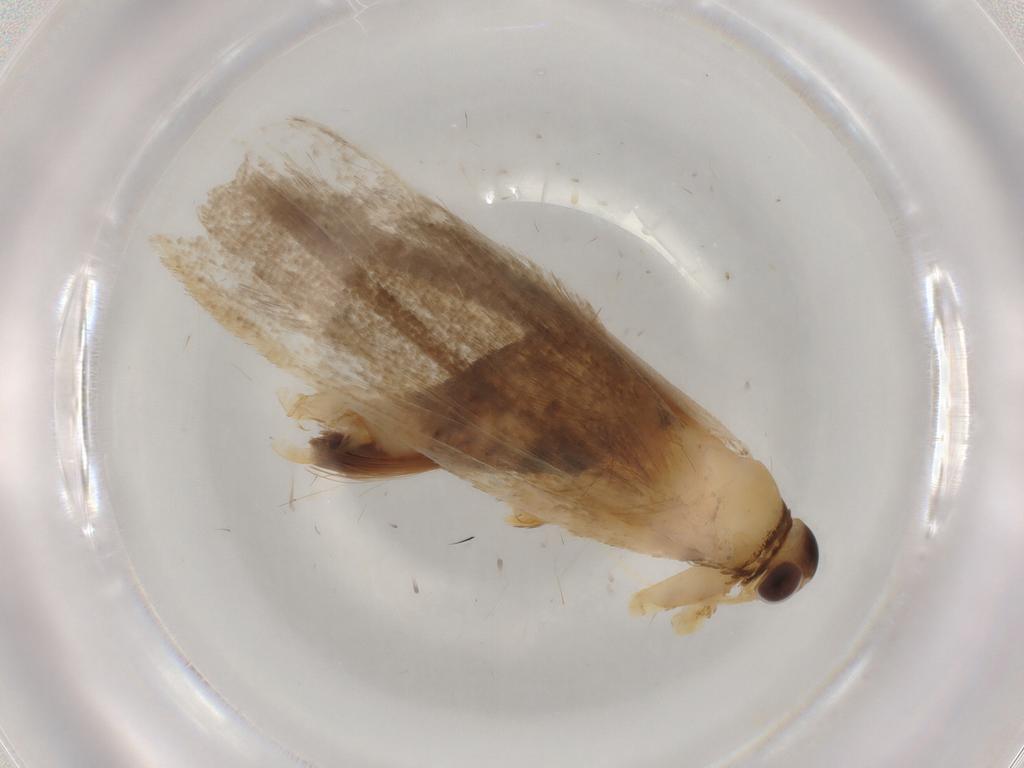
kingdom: Animalia
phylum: Arthropoda
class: Insecta
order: Lepidoptera
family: Lecithoceridae
